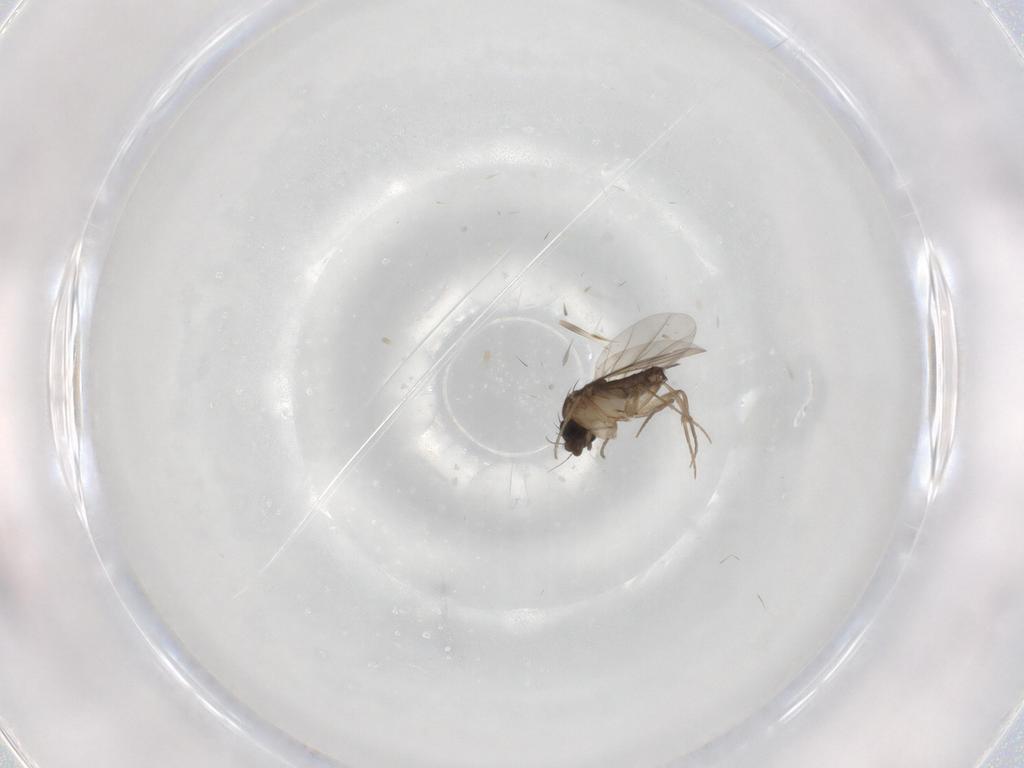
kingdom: Animalia
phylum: Arthropoda
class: Insecta
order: Diptera
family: Phoridae
